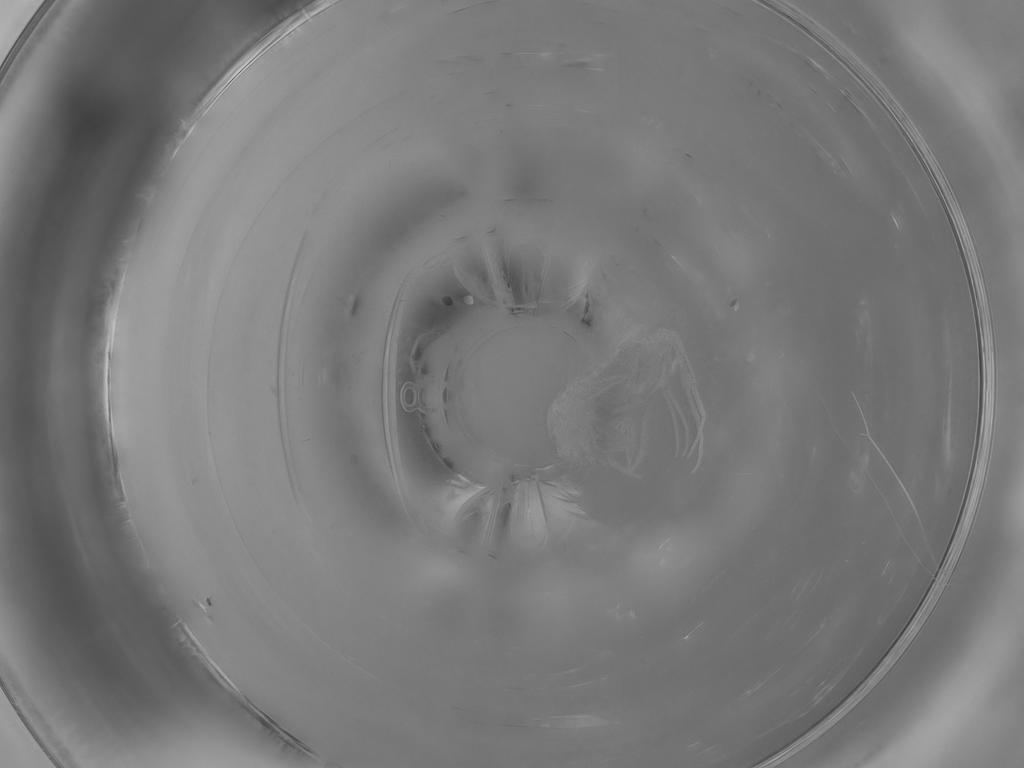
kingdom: Animalia
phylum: Arthropoda
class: Insecta
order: Diptera
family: Phoridae
